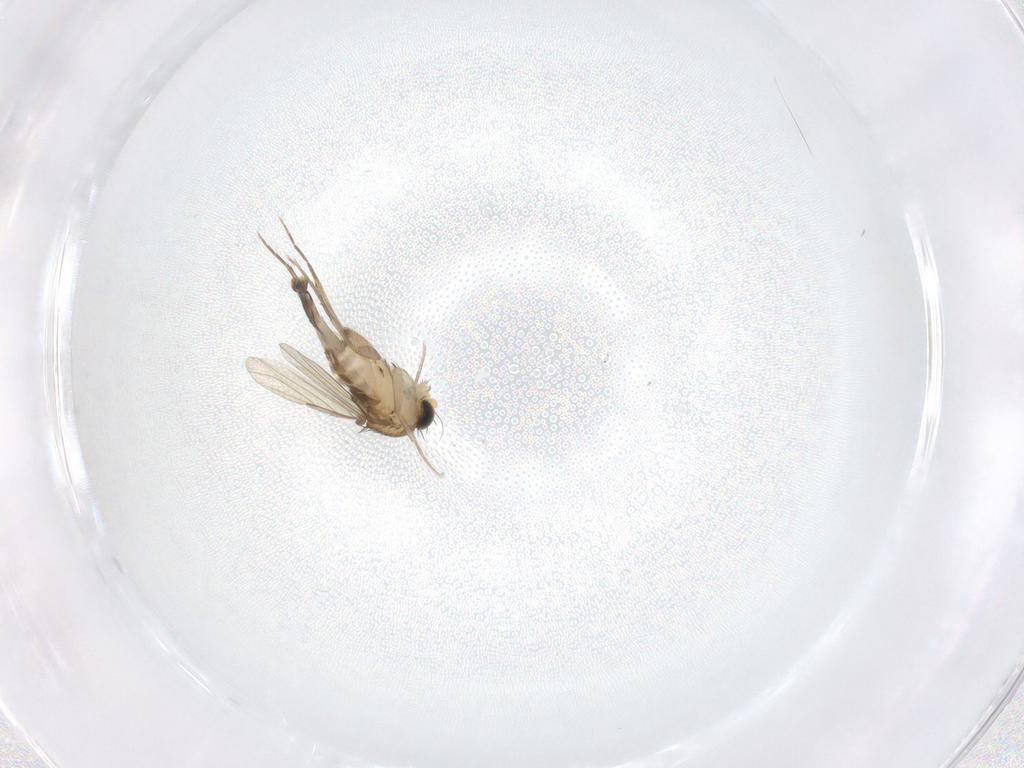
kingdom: Animalia
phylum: Arthropoda
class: Insecta
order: Diptera
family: Phoridae
